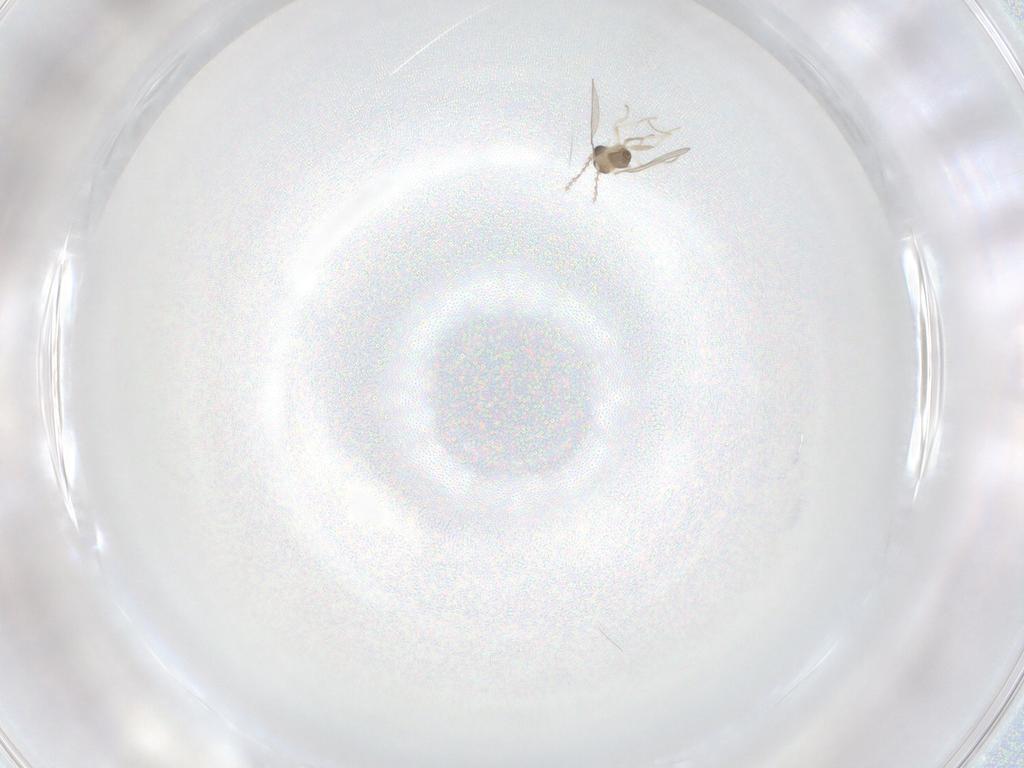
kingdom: Animalia
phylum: Arthropoda
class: Insecta
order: Diptera
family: Cecidomyiidae
